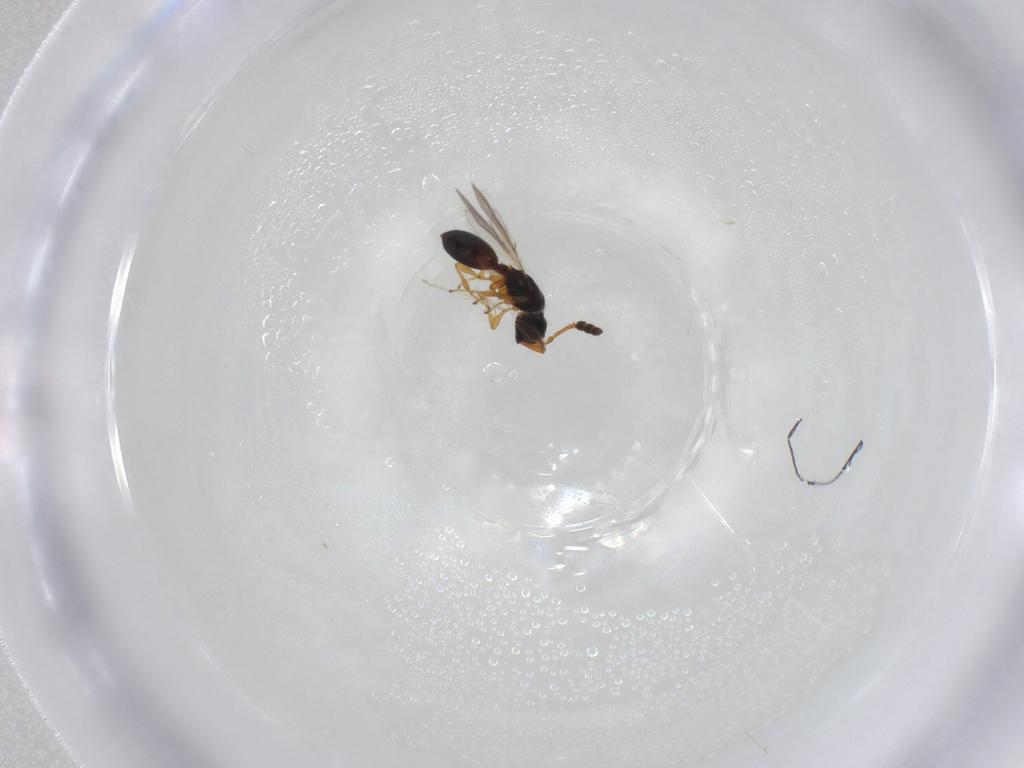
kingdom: Animalia
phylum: Arthropoda
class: Insecta
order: Hymenoptera
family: Diapriidae
